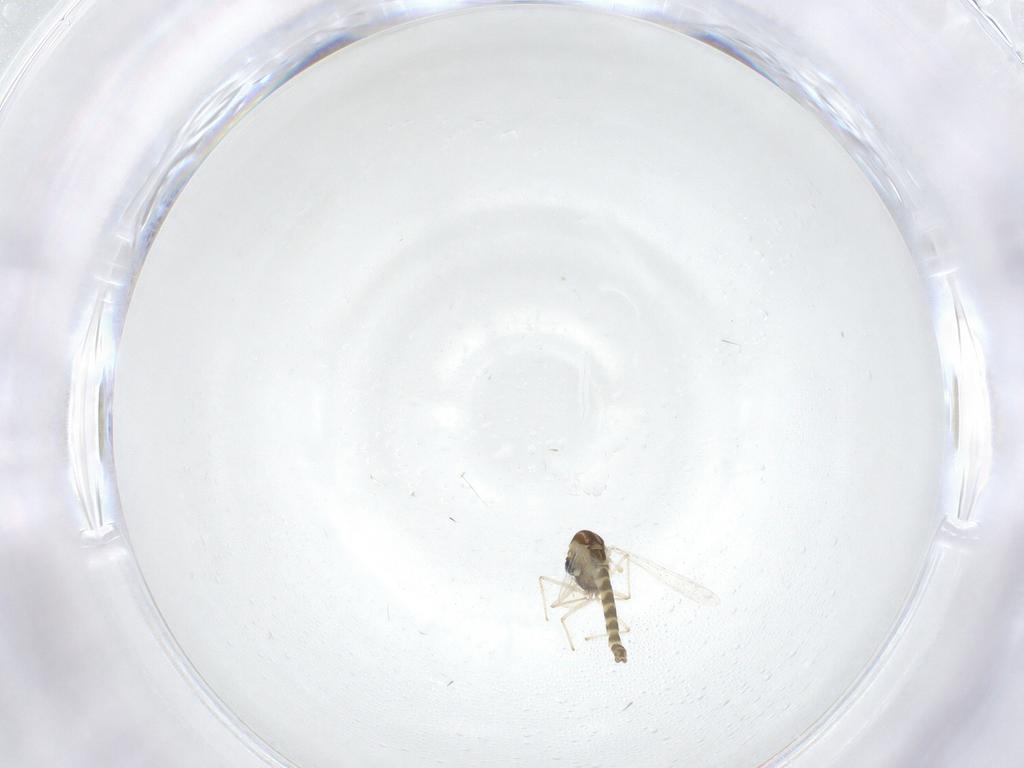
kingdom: Animalia
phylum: Arthropoda
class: Insecta
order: Diptera
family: Chironomidae
